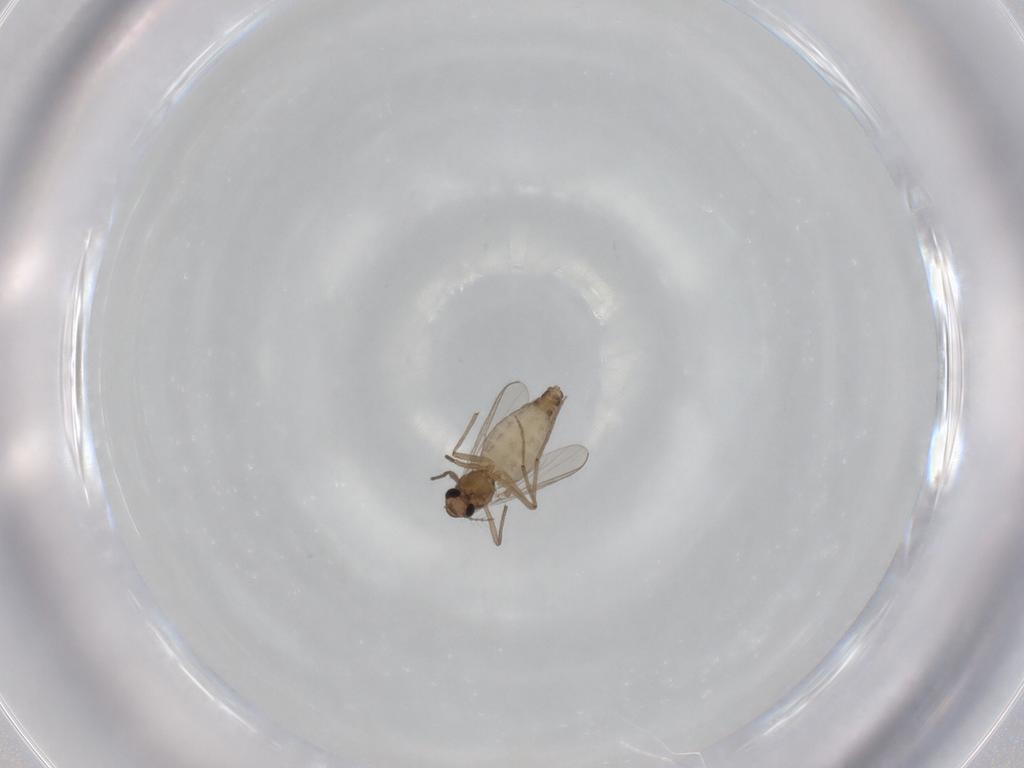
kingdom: Animalia
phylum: Arthropoda
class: Insecta
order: Diptera
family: Chironomidae
